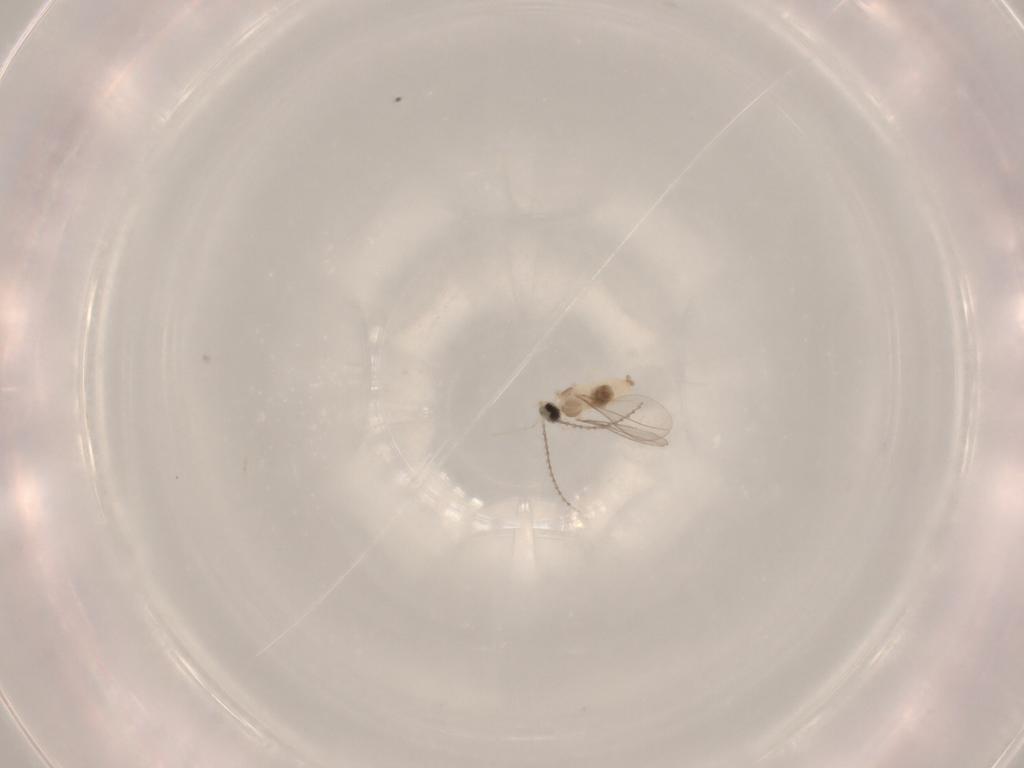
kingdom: Animalia
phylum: Arthropoda
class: Insecta
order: Diptera
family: Cecidomyiidae
